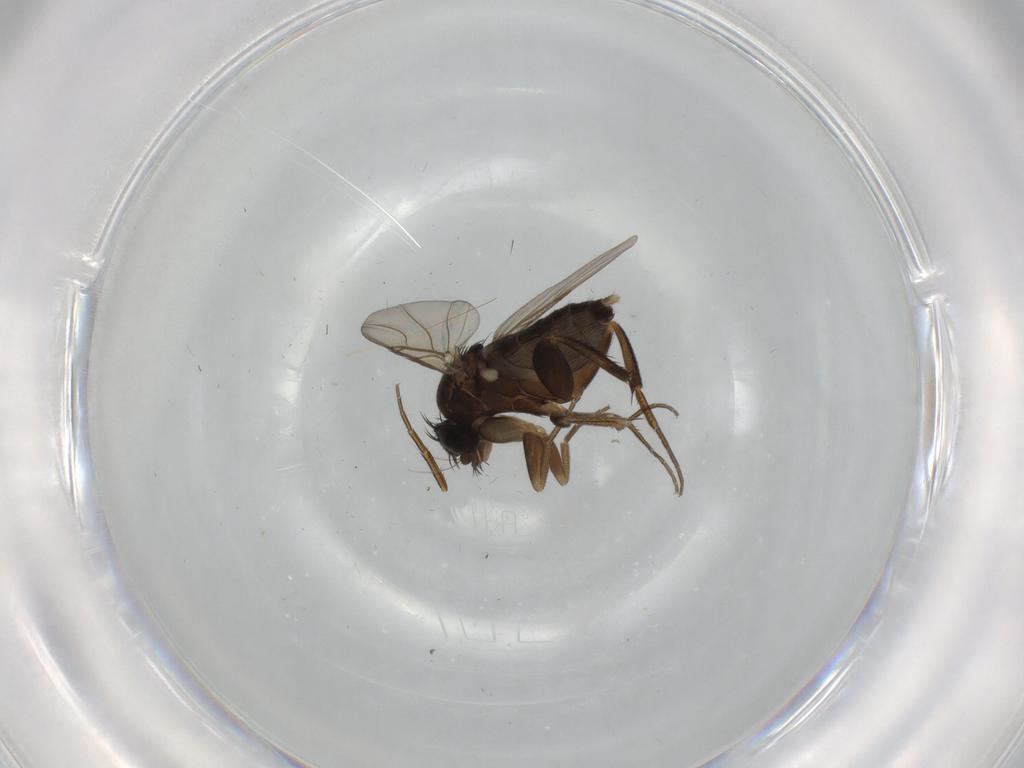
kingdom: Animalia
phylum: Arthropoda
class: Insecta
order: Diptera
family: Phoridae
